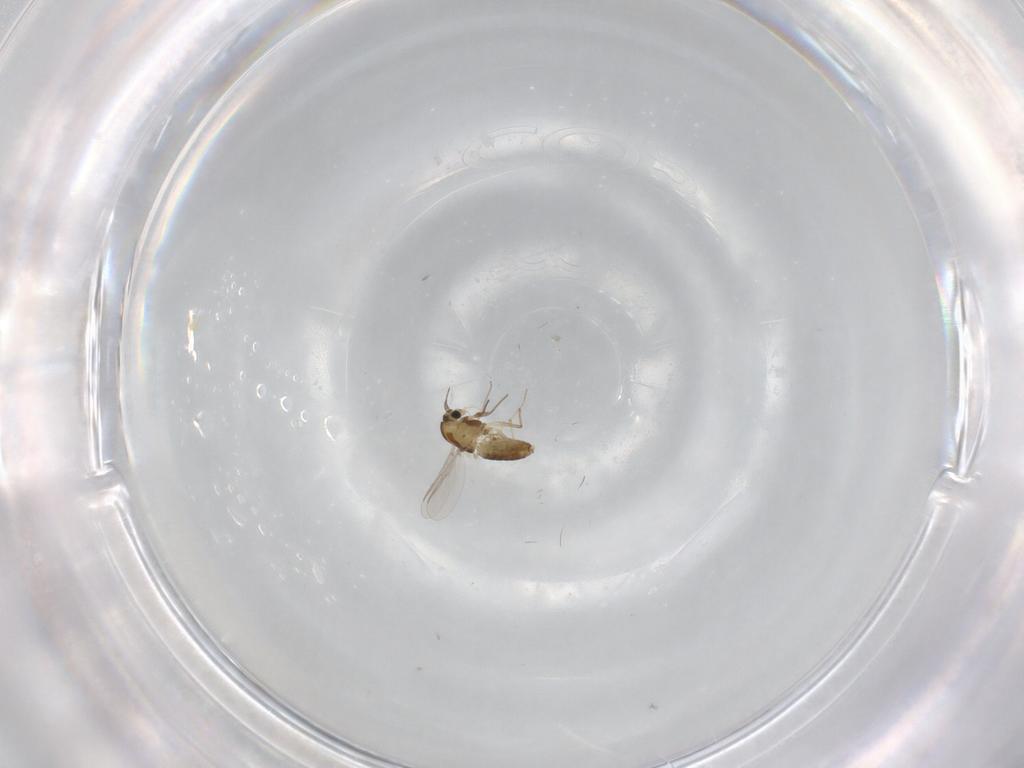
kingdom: Animalia
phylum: Arthropoda
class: Insecta
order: Diptera
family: Chironomidae
